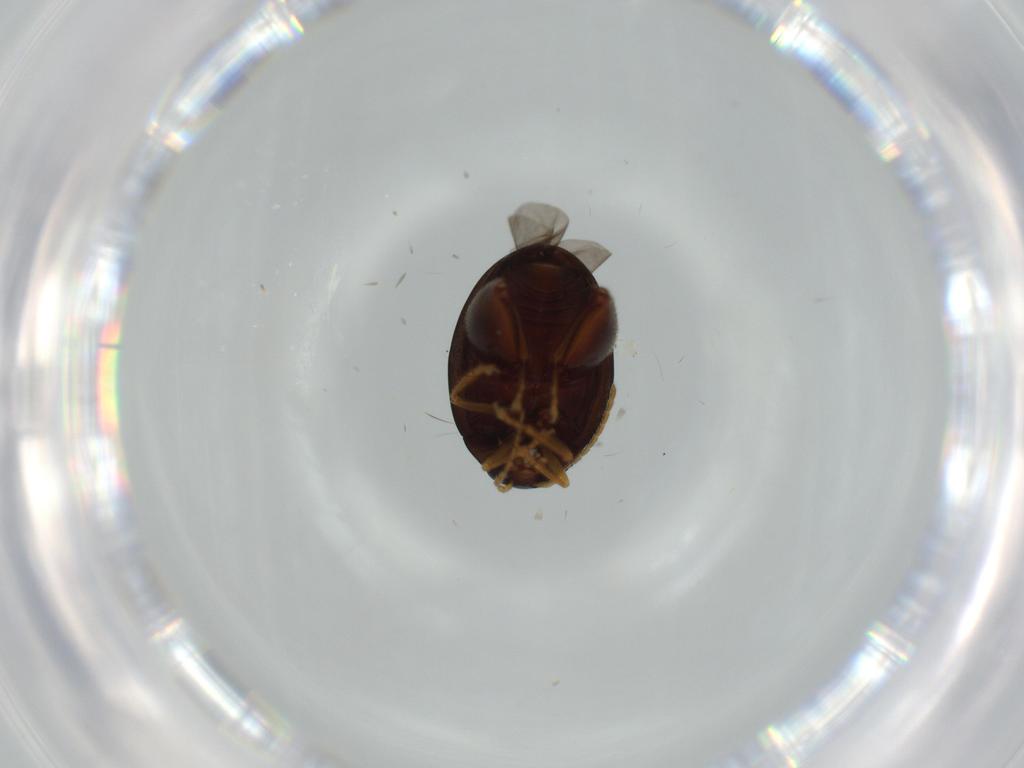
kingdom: Animalia
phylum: Arthropoda
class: Insecta
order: Coleoptera
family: Chrysomelidae
